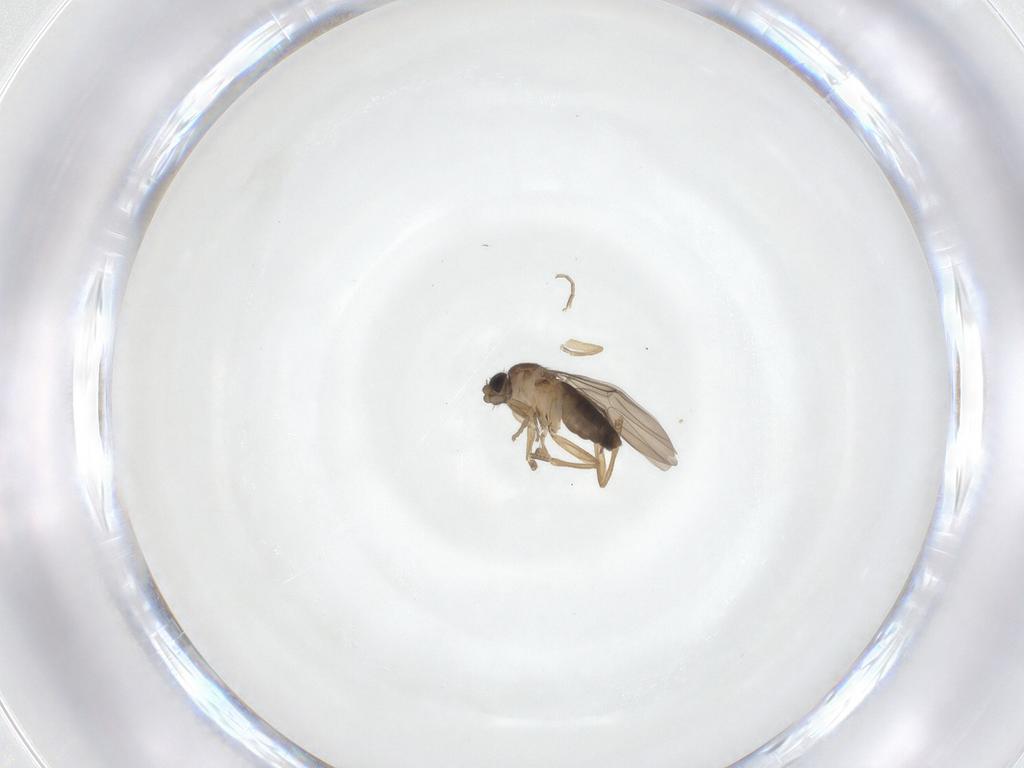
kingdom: Animalia
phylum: Arthropoda
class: Insecta
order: Diptera
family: Phoridae
